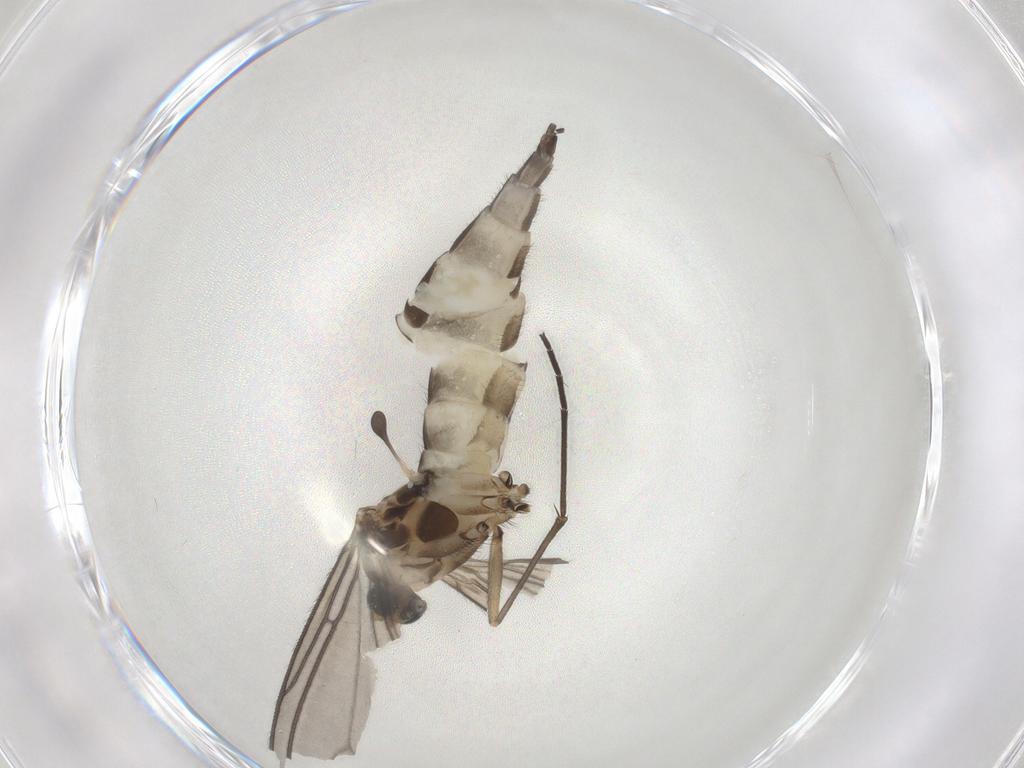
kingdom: Animalia
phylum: Arthropoda
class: Insecta
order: Diptera
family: Sciaridae
